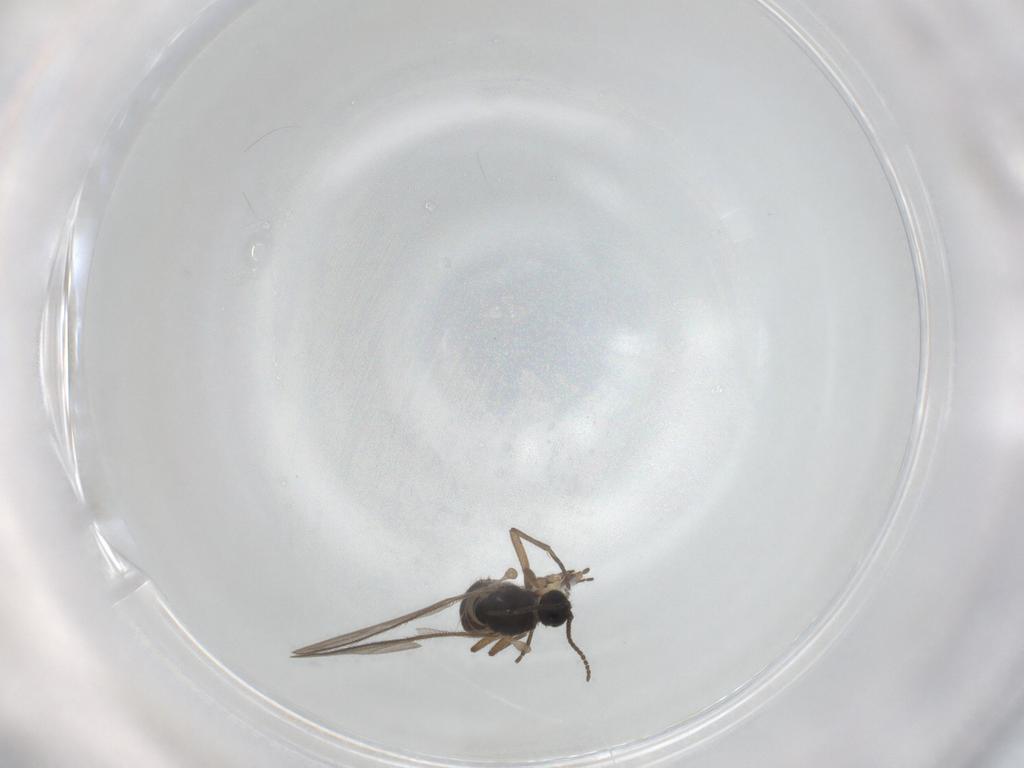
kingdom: Animalia
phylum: Arthropoda
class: Insecta
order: Diptera
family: Sciaridae
